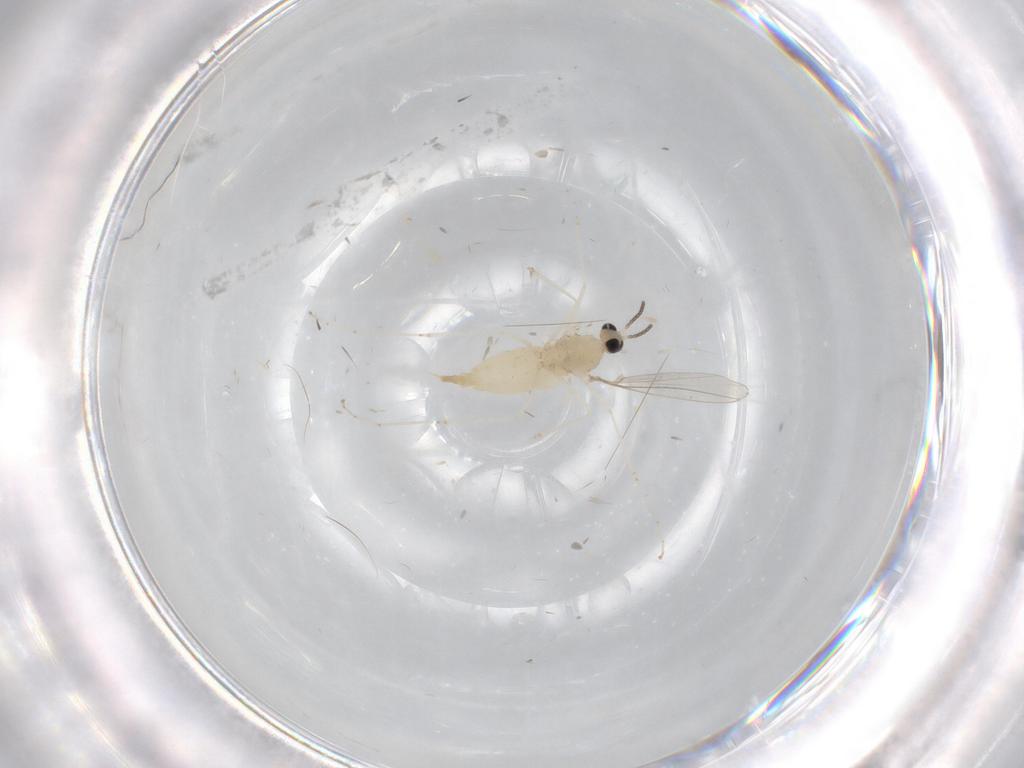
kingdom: Animalia
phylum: Arthropoda
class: Insecta
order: Diptera
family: Cecidomyiidae
